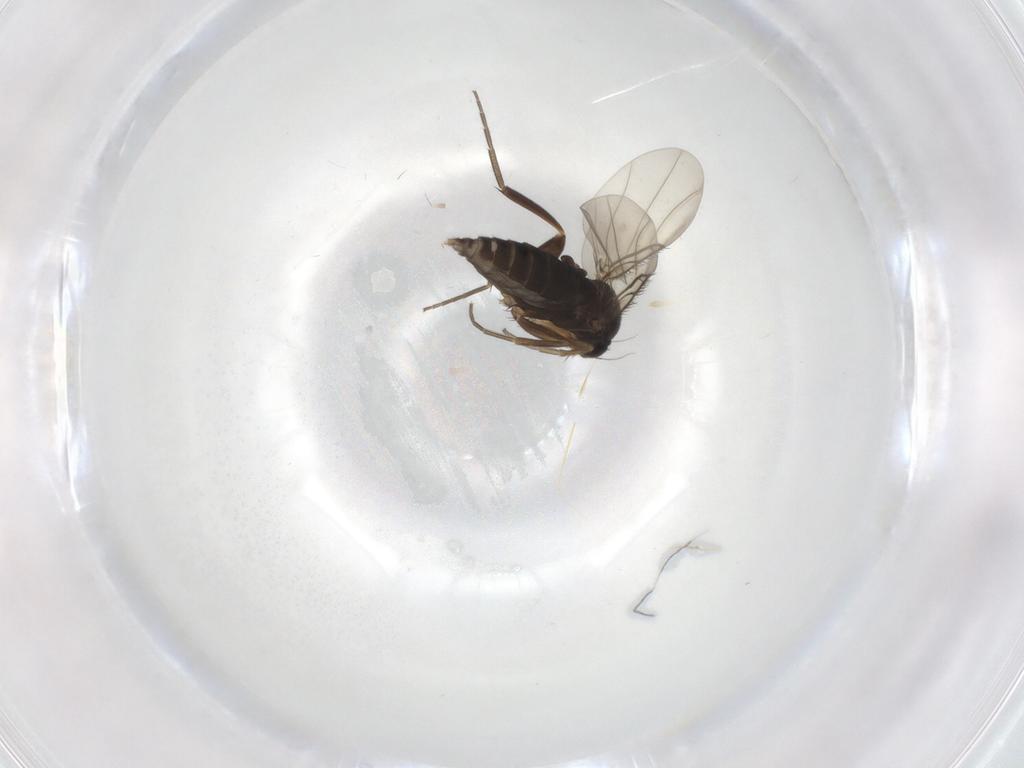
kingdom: Animalia
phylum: Arthropoda
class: Insecta
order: Diptera
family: Phoridae
